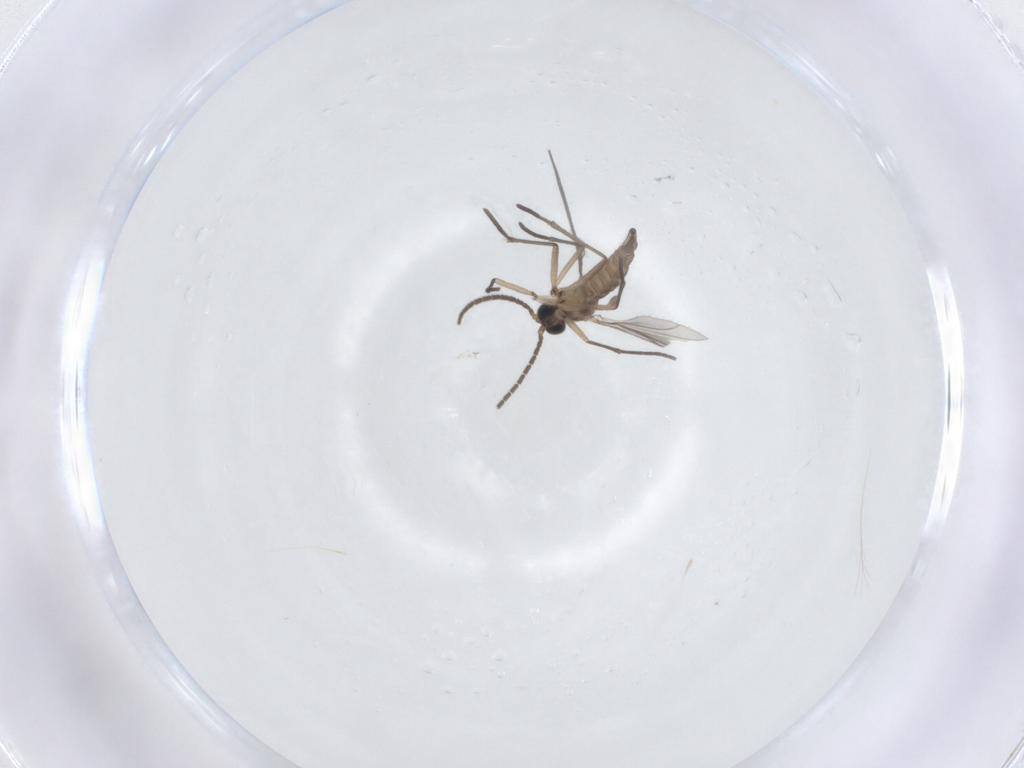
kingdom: Animalia
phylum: Arthropoda
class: Insecta
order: Diptera
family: Sciaridae
